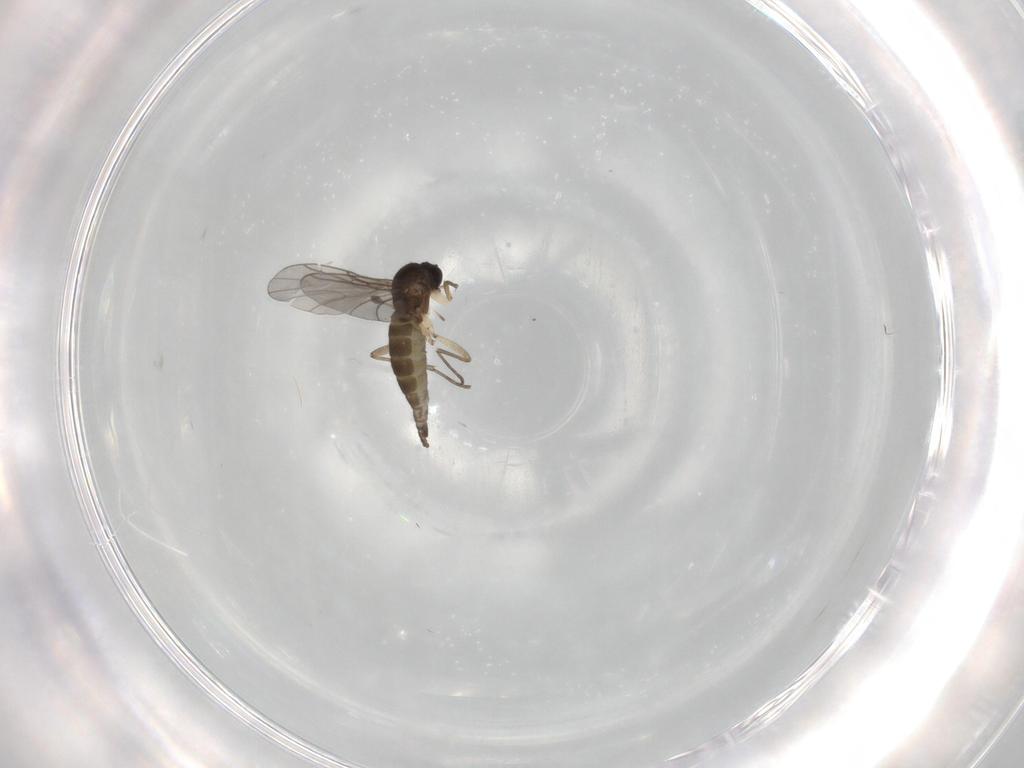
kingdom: Animalia
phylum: Arthropoda
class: Insecta
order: Diptera
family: Sciaridae
